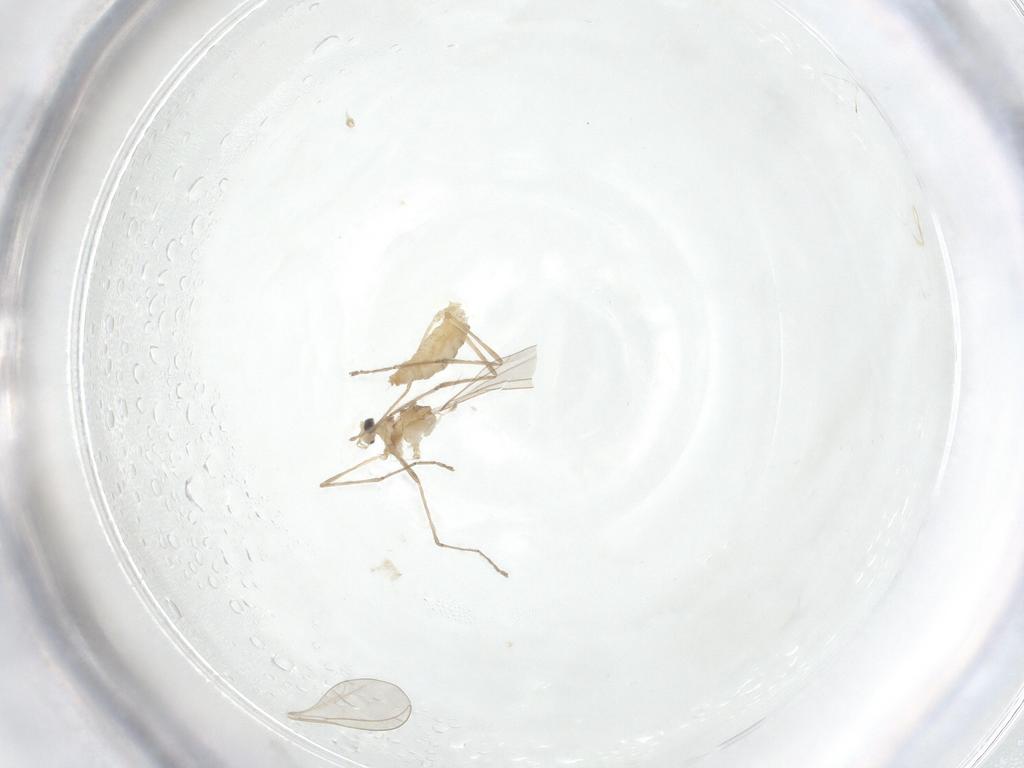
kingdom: Animalia
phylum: Arthropoda
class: Insecta
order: Diptera
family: Cecidomyiidae
